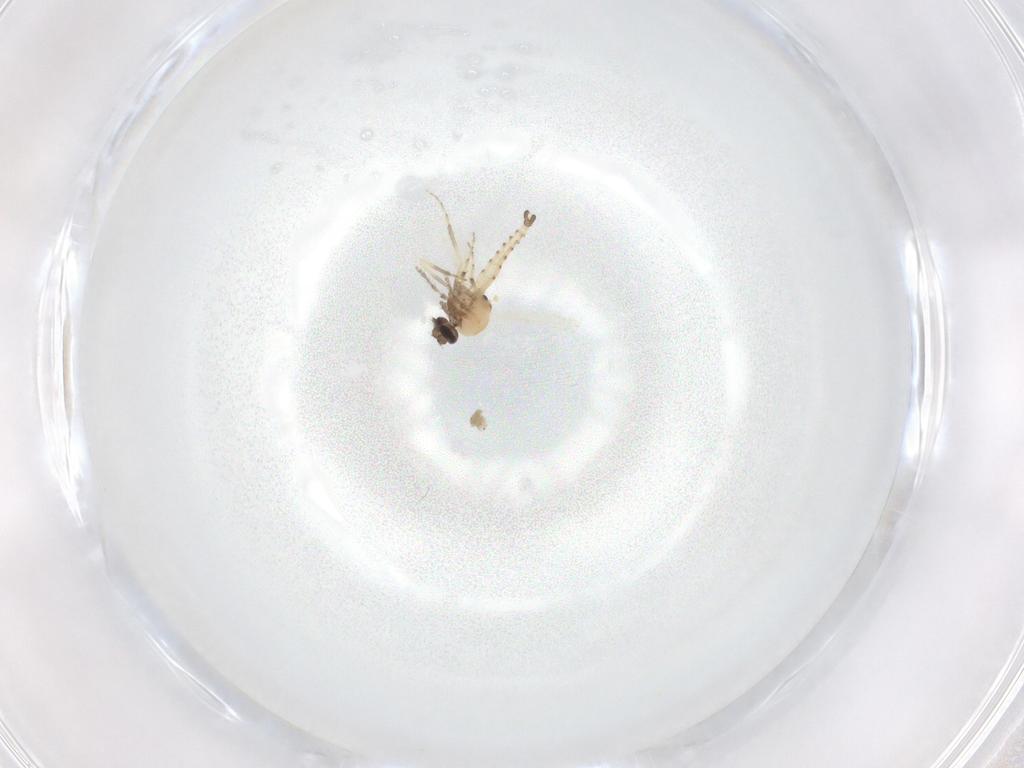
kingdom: Animalia
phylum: Arthropoda
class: Insecta
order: Diptera
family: Ceratopogonidae
